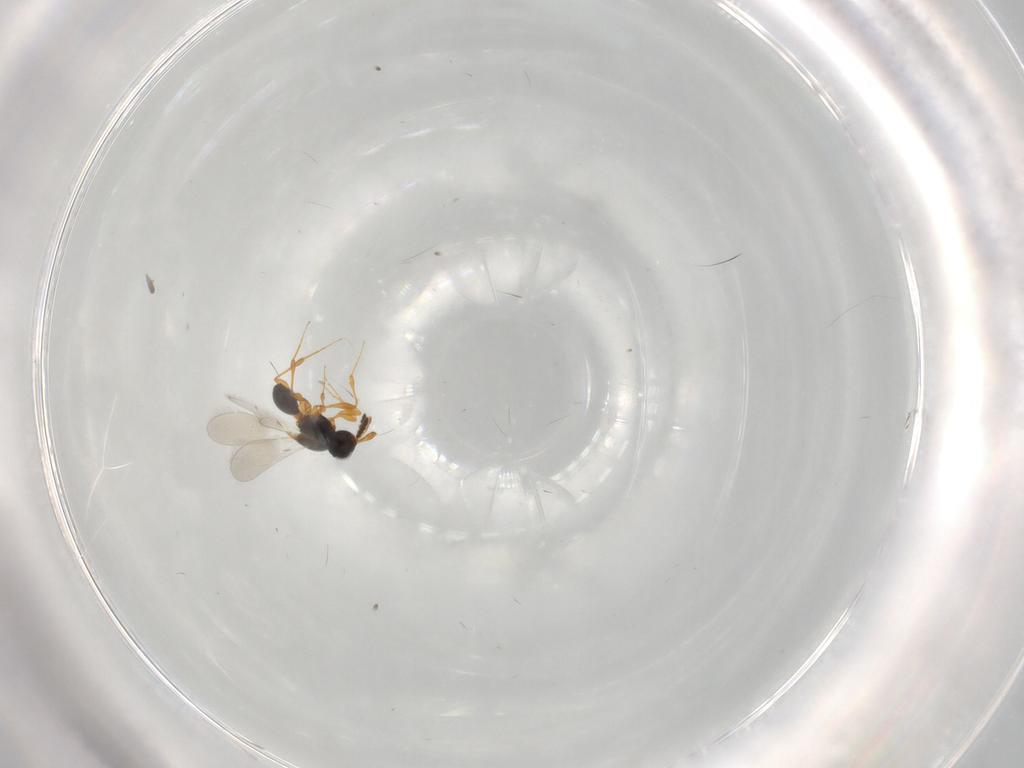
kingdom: Animalia
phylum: Arthropoda
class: Insecta
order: Hymenoptera
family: Platygastridae
